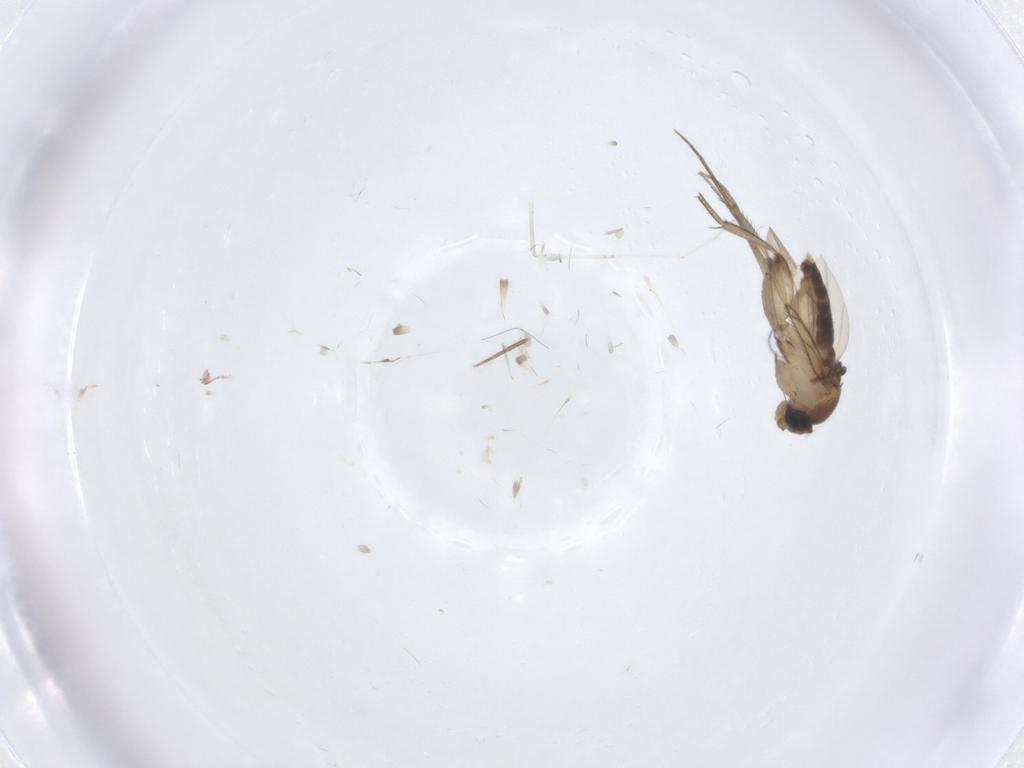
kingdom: Animalia
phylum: Arthropoda
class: Insecta
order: Diptera
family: Phoridae
